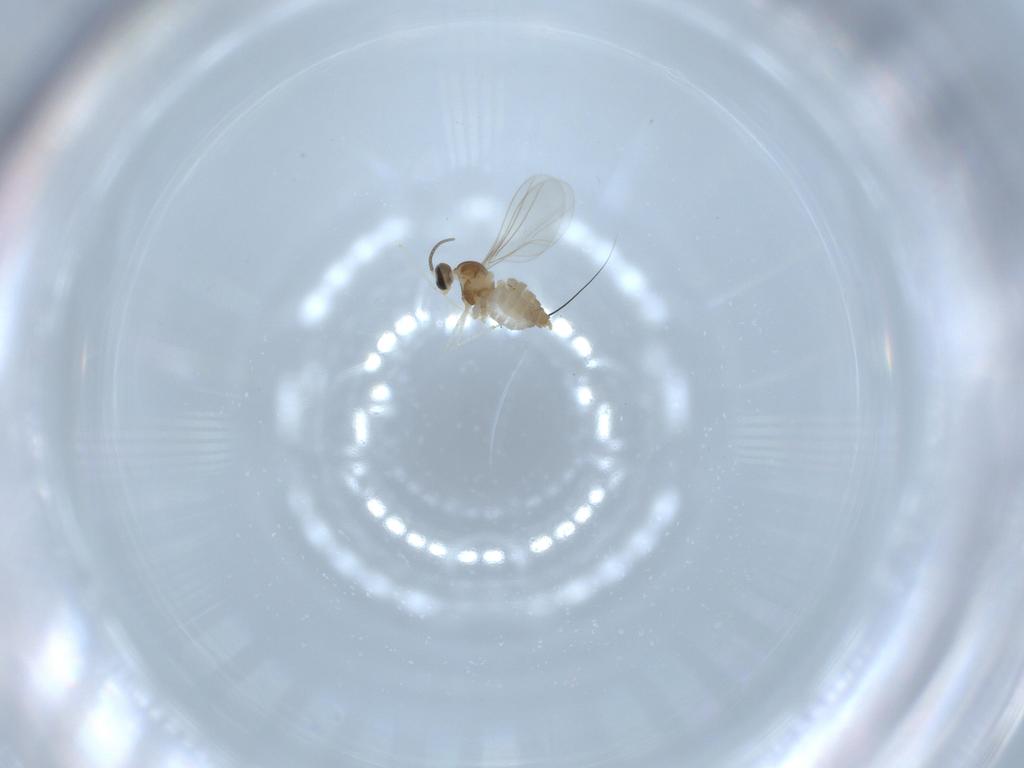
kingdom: Animalia
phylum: Arthropoda
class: Insecta
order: Diptera
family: Cecidomyiidae
